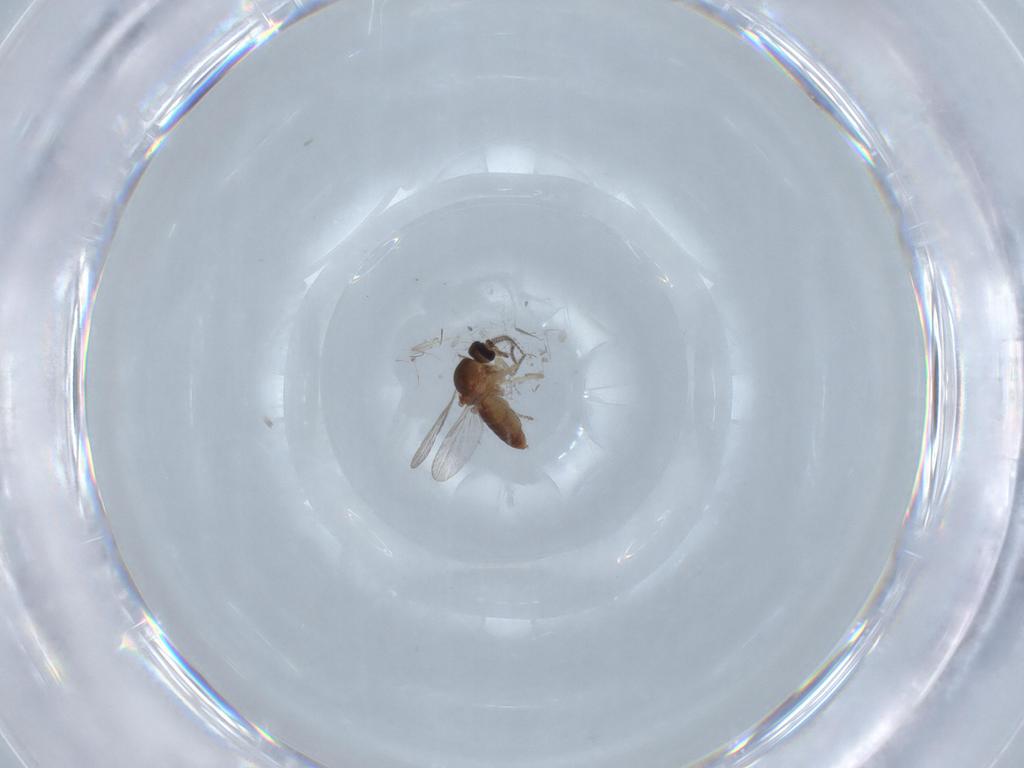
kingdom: Animalia
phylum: Arthropoda
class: Insecta
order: Diptera
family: Ceratopogonidae
